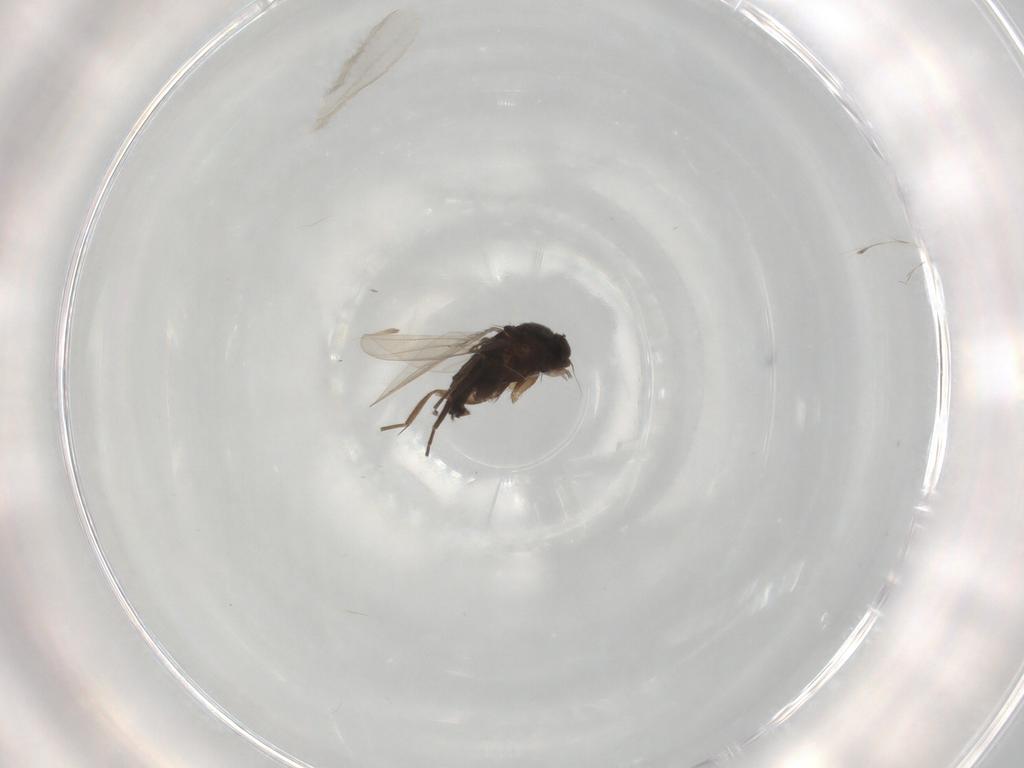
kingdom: Animalia
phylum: Arthropoda
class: Insecta
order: Diptera
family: Phoridae
